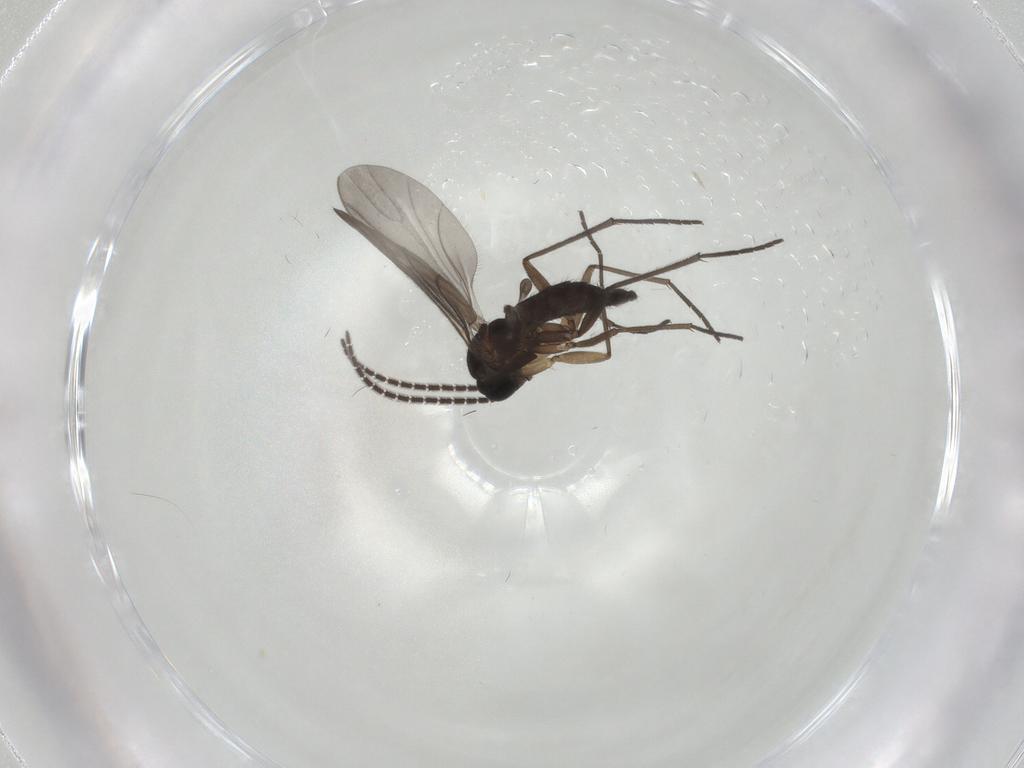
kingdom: Animalia
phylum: Arthropoda
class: Insecta
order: Diptera
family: Sciaridae
